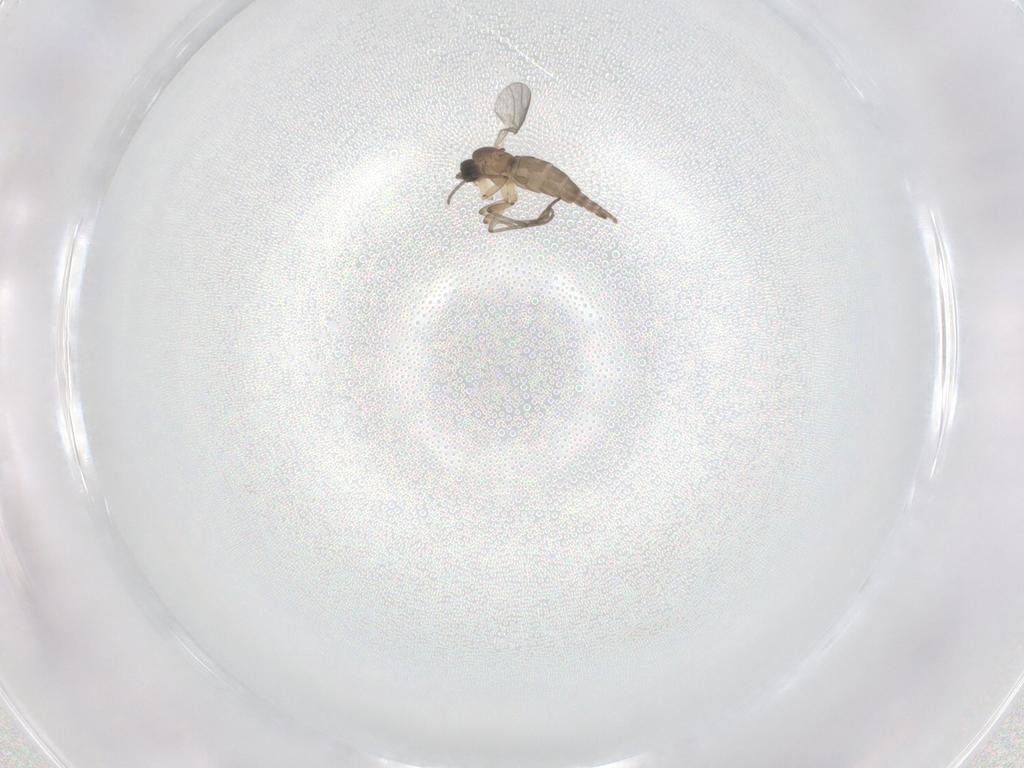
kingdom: Animalia
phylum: Arthropoda
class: Insecta
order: Diptera
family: Sciaridae
